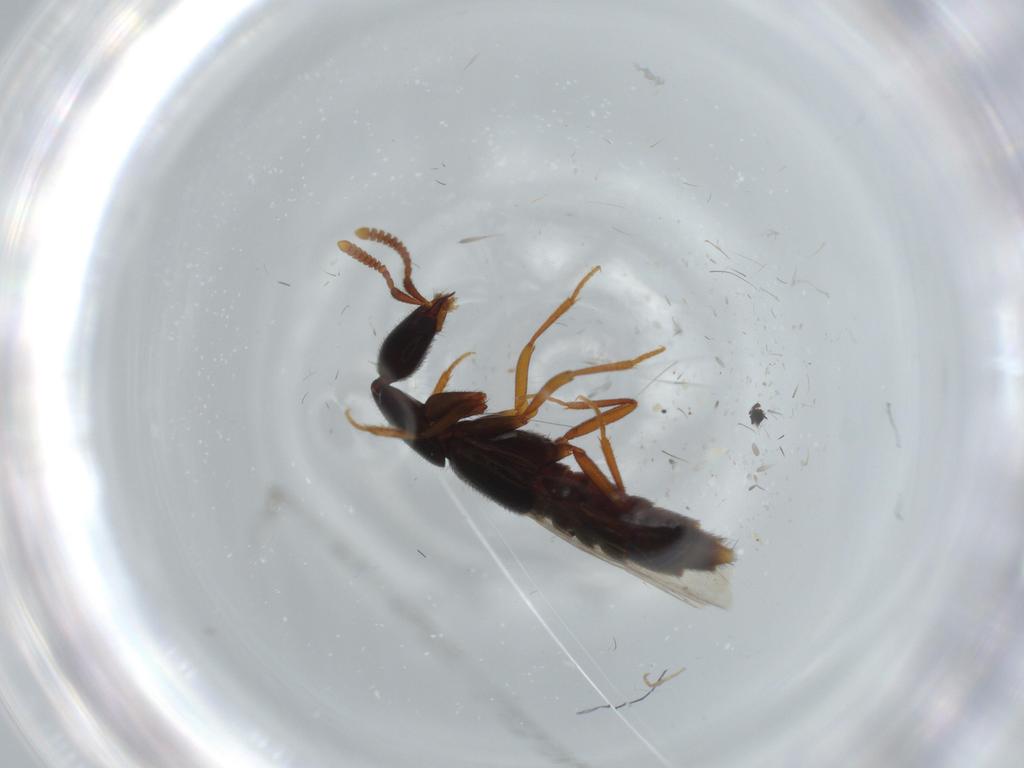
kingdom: Animalia
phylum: Arthropoda
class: Insecta
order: Coleoptera
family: Staphylinidae
